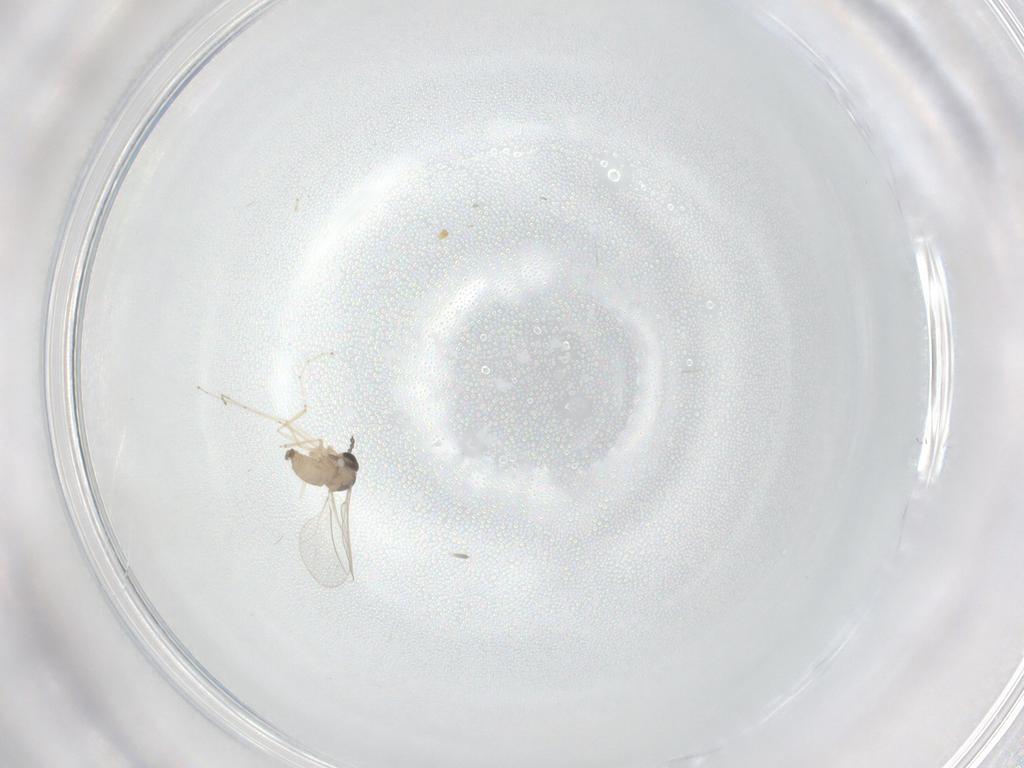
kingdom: Animalia
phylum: Arthropoda
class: Insecta
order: Diptera
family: Cecidomyiidae
